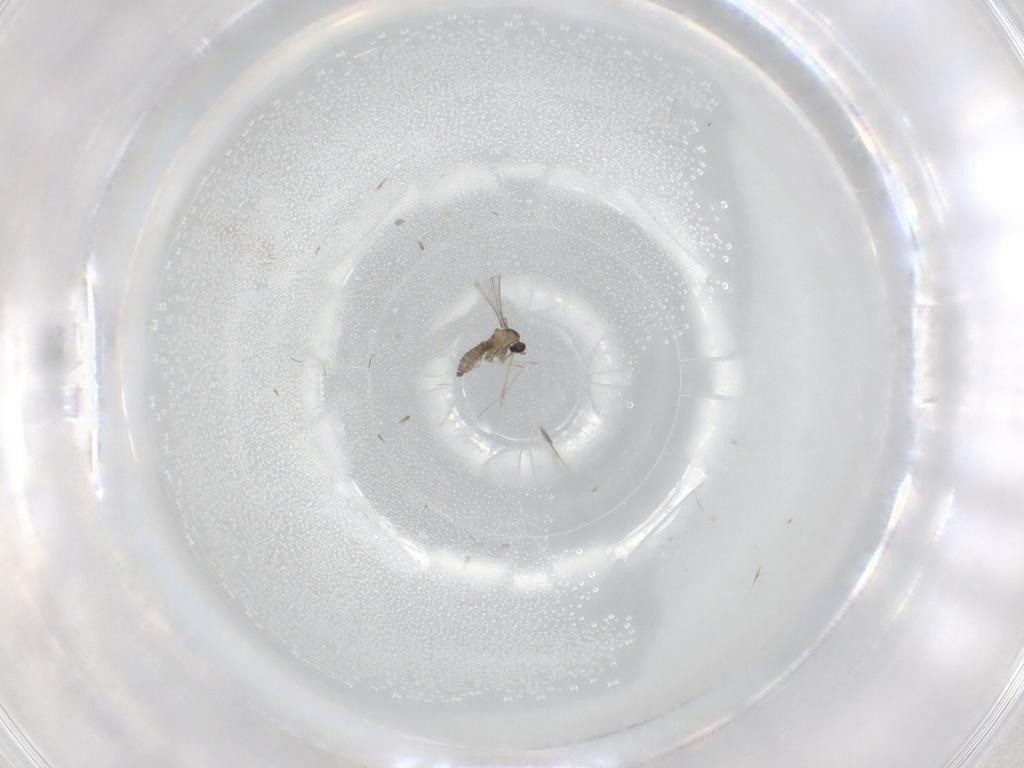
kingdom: Animalia
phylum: Arthropoda
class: Insecta
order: Diptera
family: Cecidomyiidae
